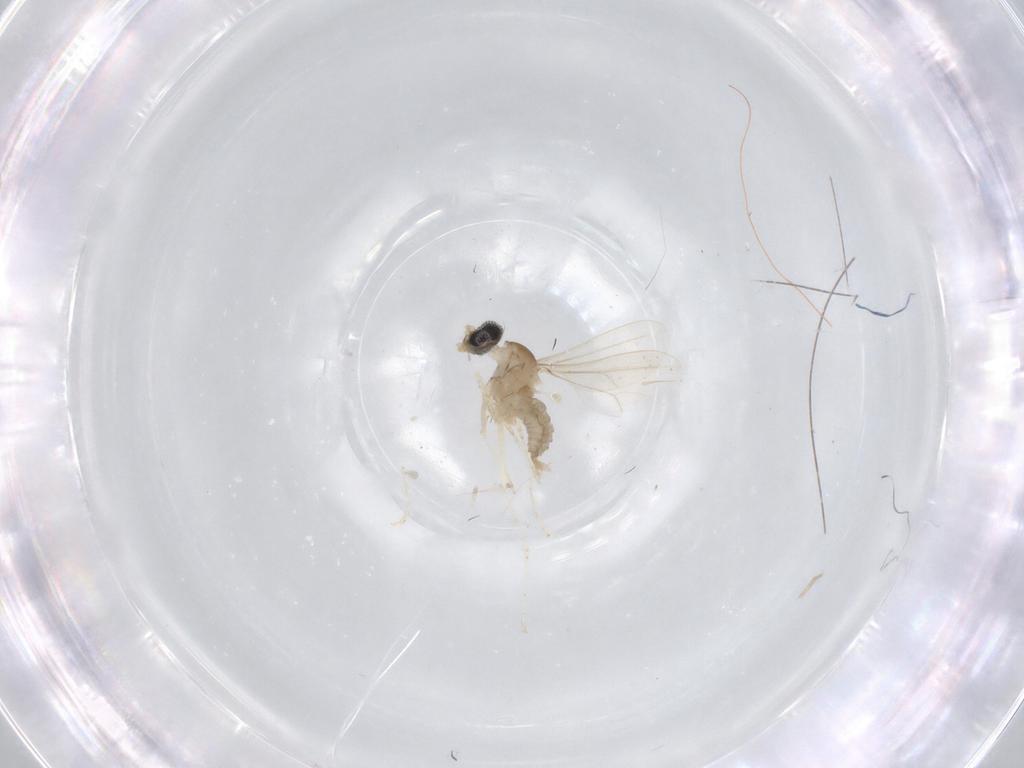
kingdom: Animalia
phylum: Arthropoda
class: Insecta
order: Diptera
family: Cecidomyiidae
